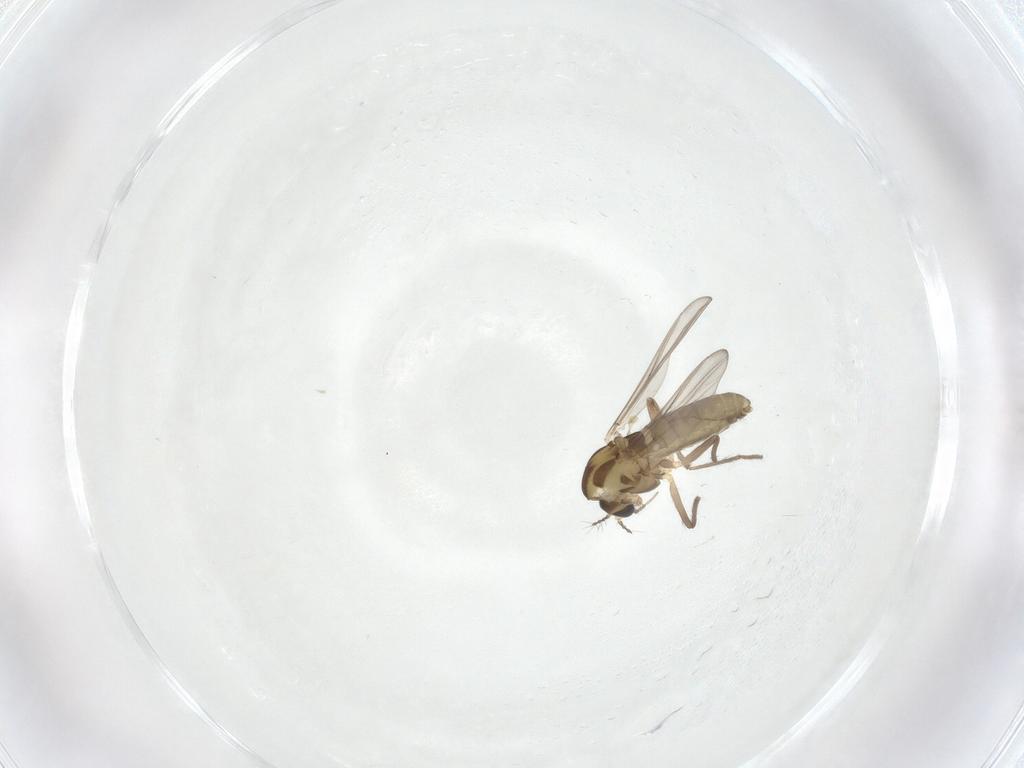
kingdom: Animalia
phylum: Arthropoda
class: Insecta
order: Diptera
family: Chironomidae
